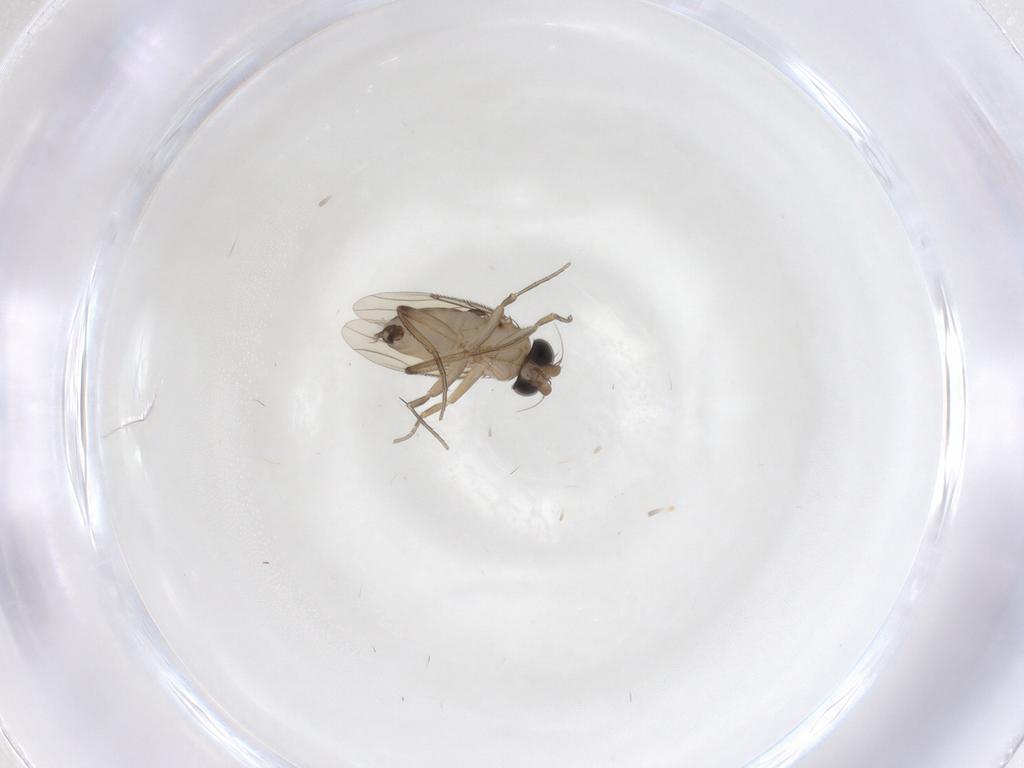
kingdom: Animalia
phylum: Arthropoda
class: Insecta
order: Diptera
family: Phoridae
